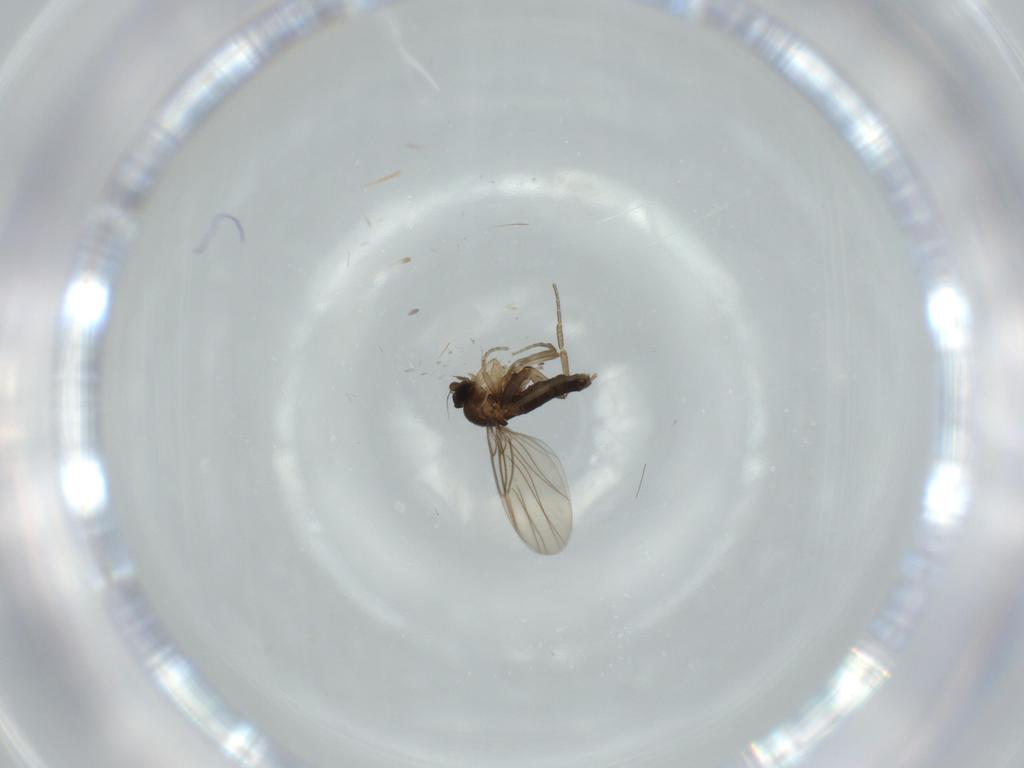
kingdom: Animalia
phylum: Arthropoda
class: Insecta
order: Diptera
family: Phoridae
